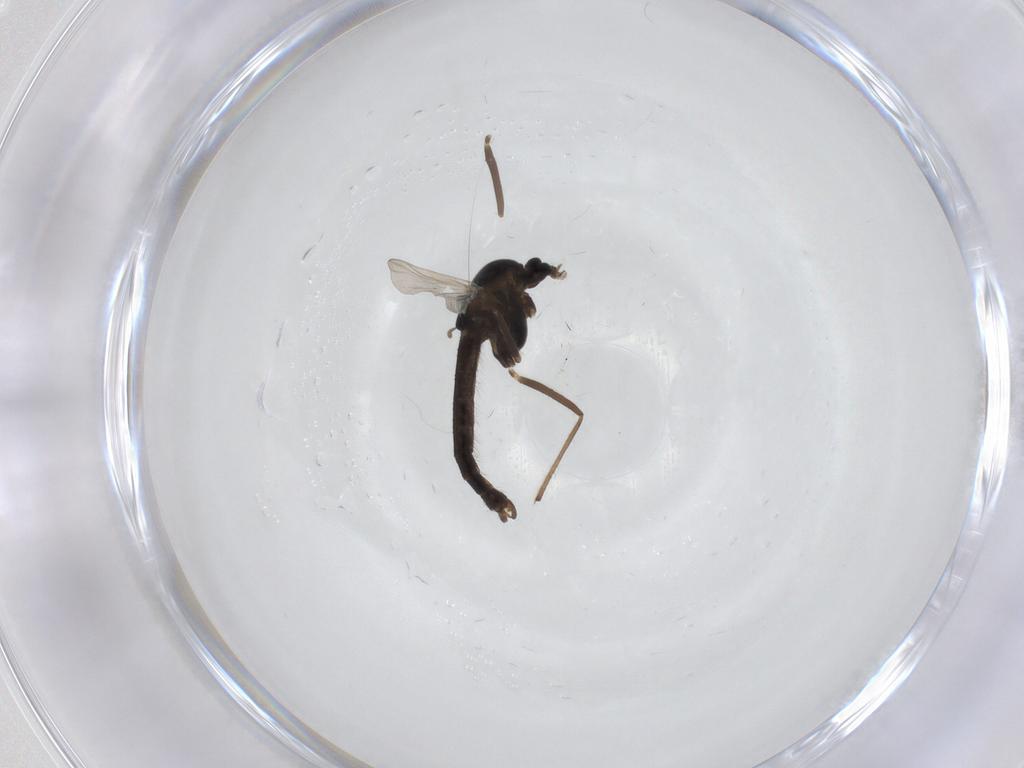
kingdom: Animalia
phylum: Arthropoda
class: Insecta
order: Diptera
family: Chironomidae
